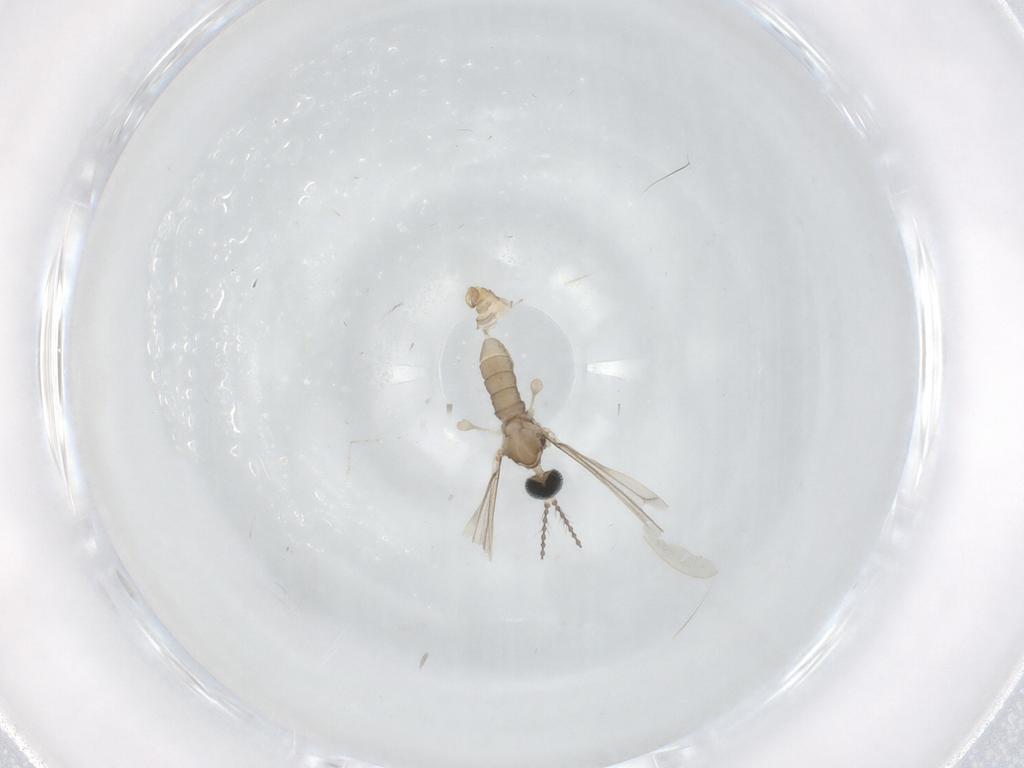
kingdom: Animalia
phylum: Arthropoda
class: Insecta
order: Diptera
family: Cecidomyiidae
